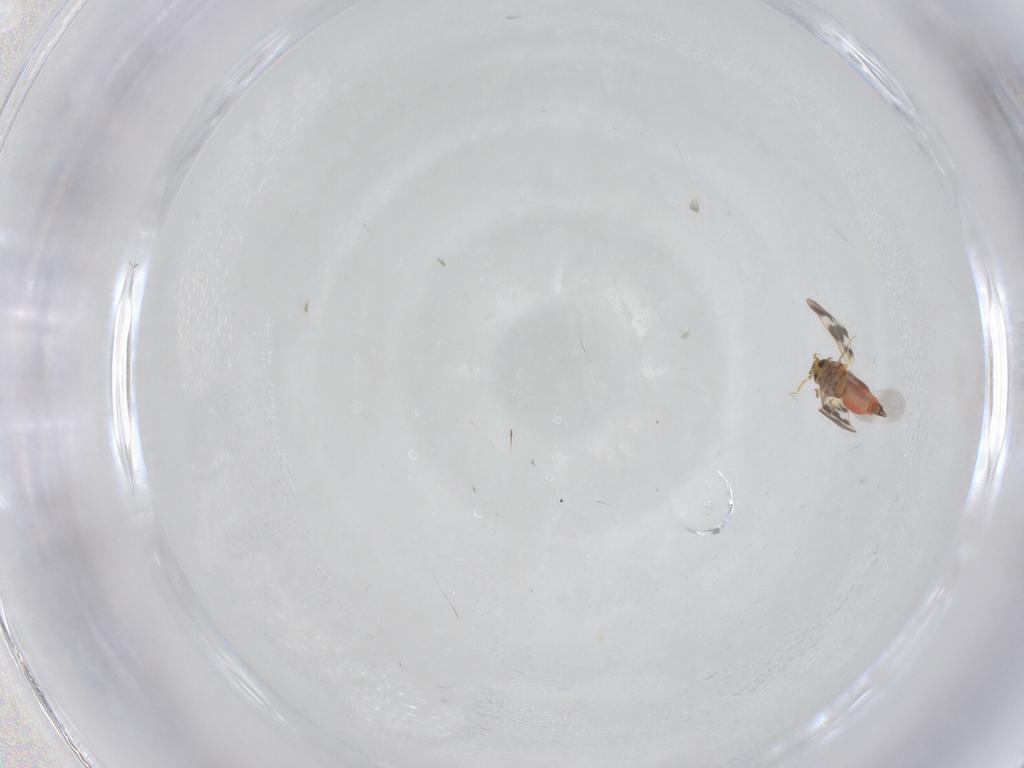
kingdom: Animalia
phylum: Arthropoda
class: Insecta
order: Hemiptera
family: Aleyrodidae
